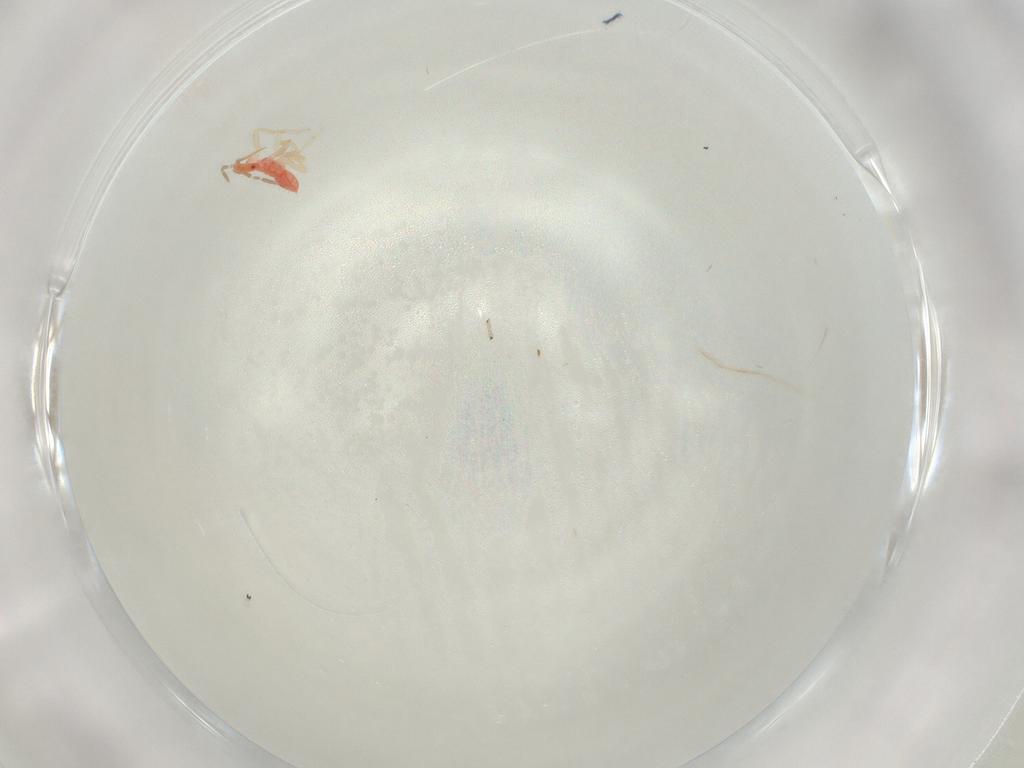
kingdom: Animalia
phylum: Arthropoda
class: Insecta
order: Hemiptera
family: Anthocoridae
